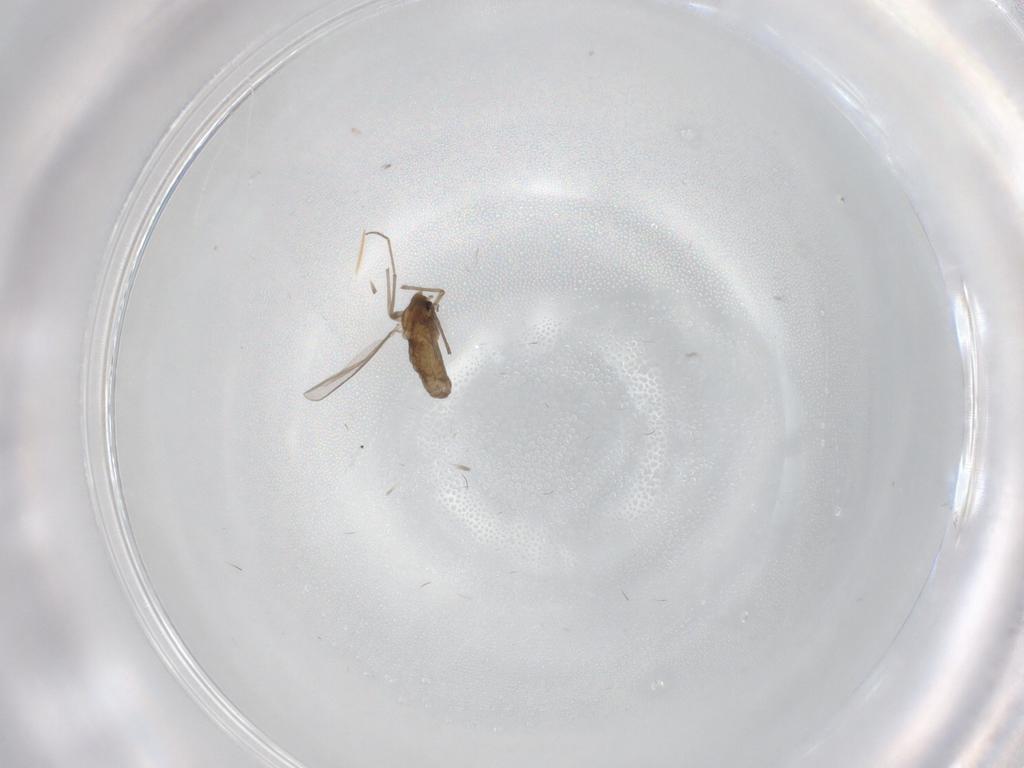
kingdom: Animalia
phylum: Arthropoda
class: Insecta
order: Diptera
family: Chironomidae
